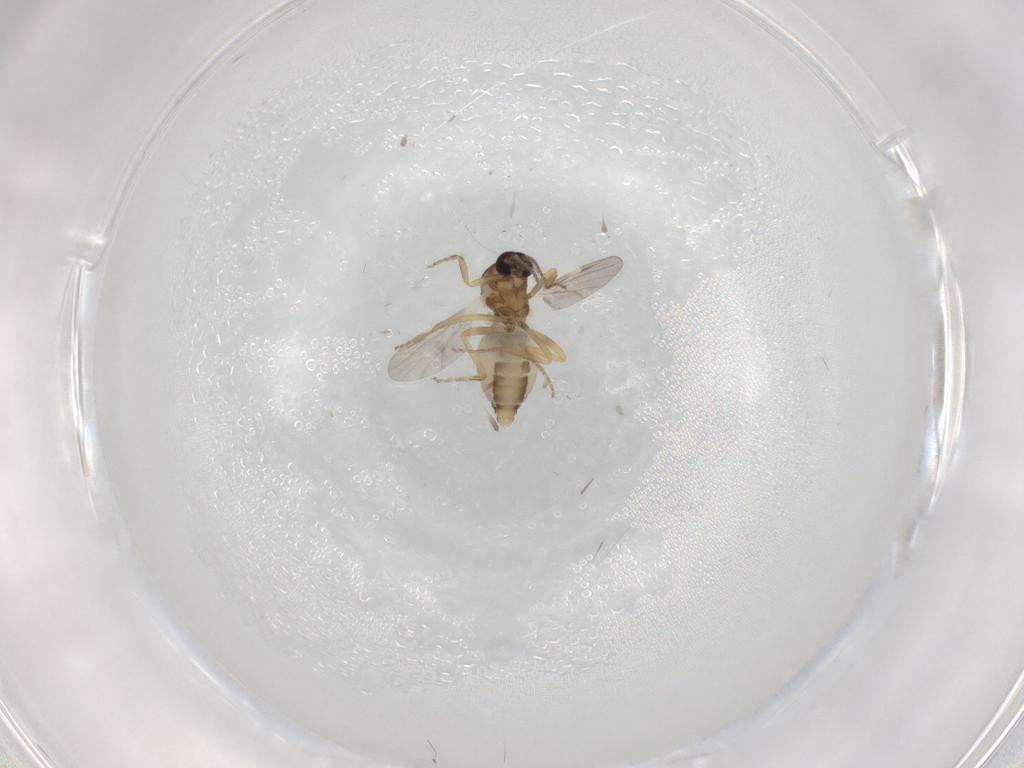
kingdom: Animalia
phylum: Arthropoda
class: Insecta
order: Diptera
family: Ceratopogonidae
